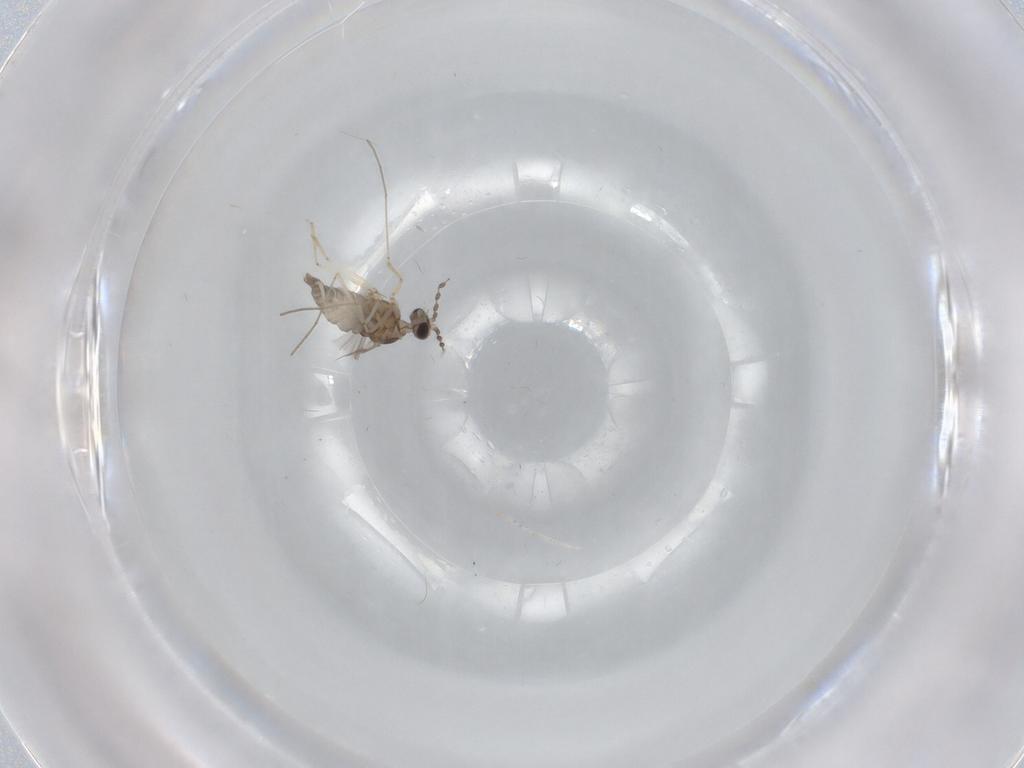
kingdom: Animalia
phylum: Arthropoda
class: Insecta
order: Diptera
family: Cecidomyiidae
